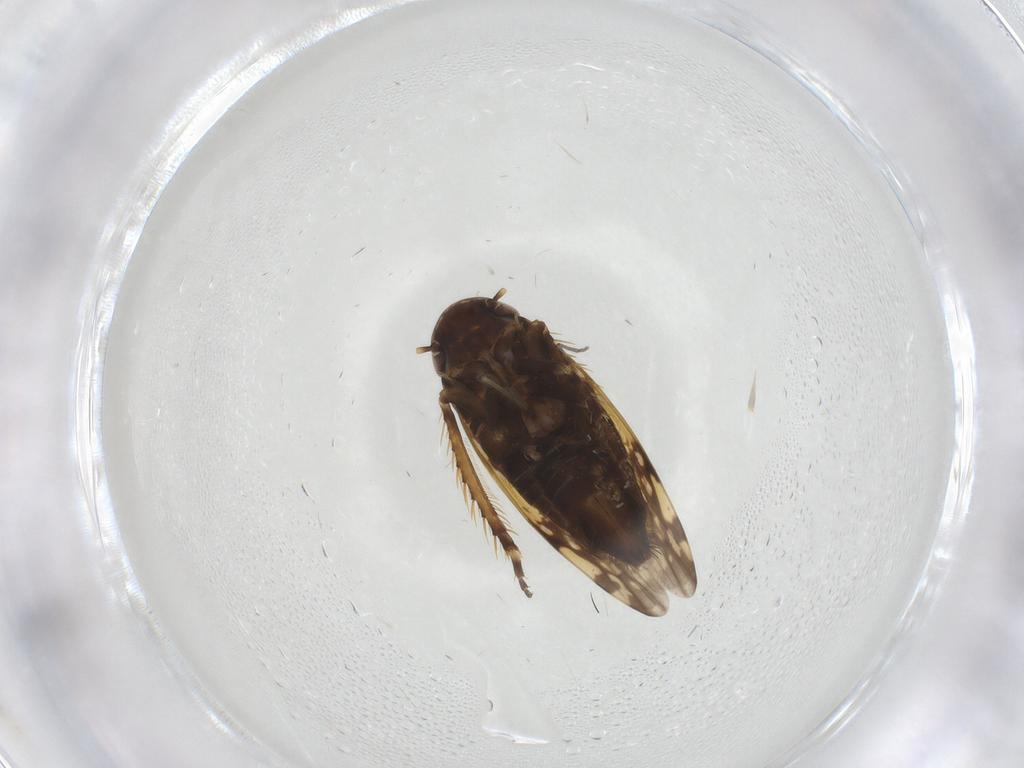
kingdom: Animalia
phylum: Arthropoda
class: Insecta
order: Hemiptera
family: Cicadellidae
